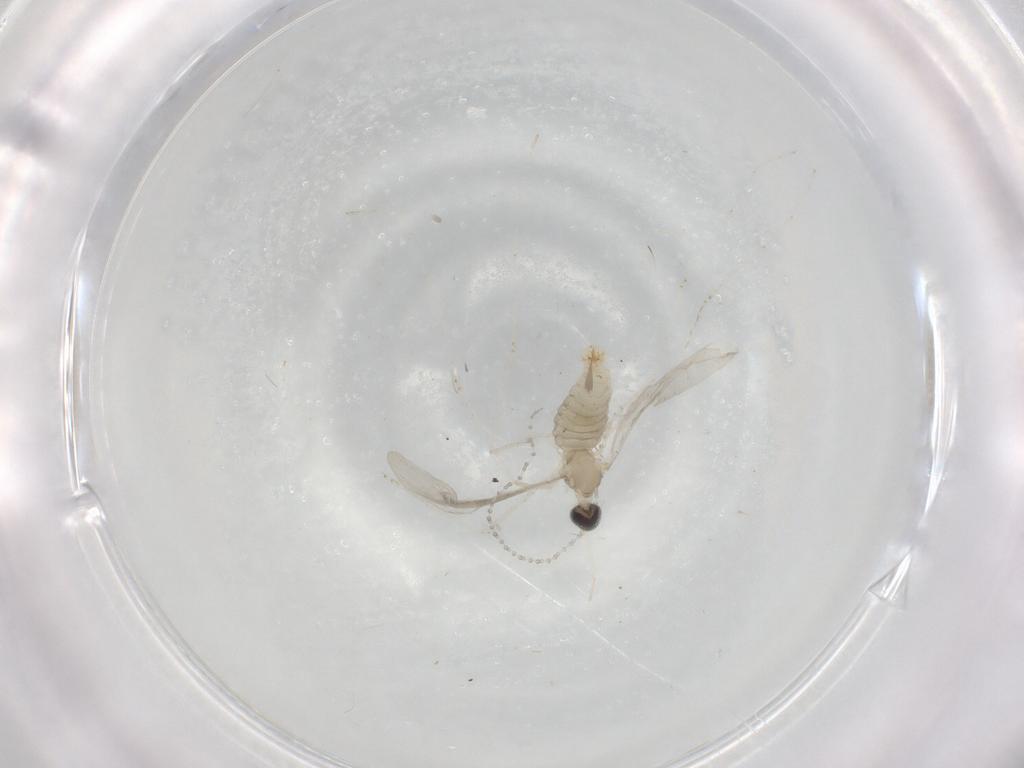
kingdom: Animalia
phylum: Arthropoda
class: Insecta
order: Diptera
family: Cecidomyiidae
